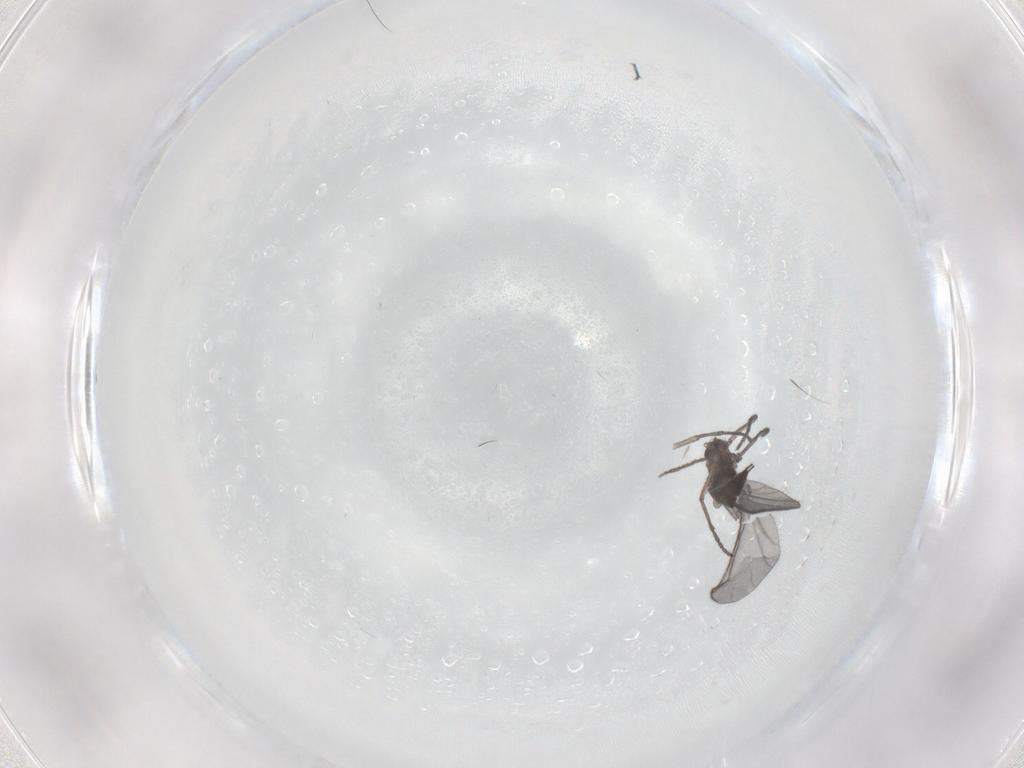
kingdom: Animalia
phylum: Arthropoda
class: Insecta
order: Diptera
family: Sciaridae
